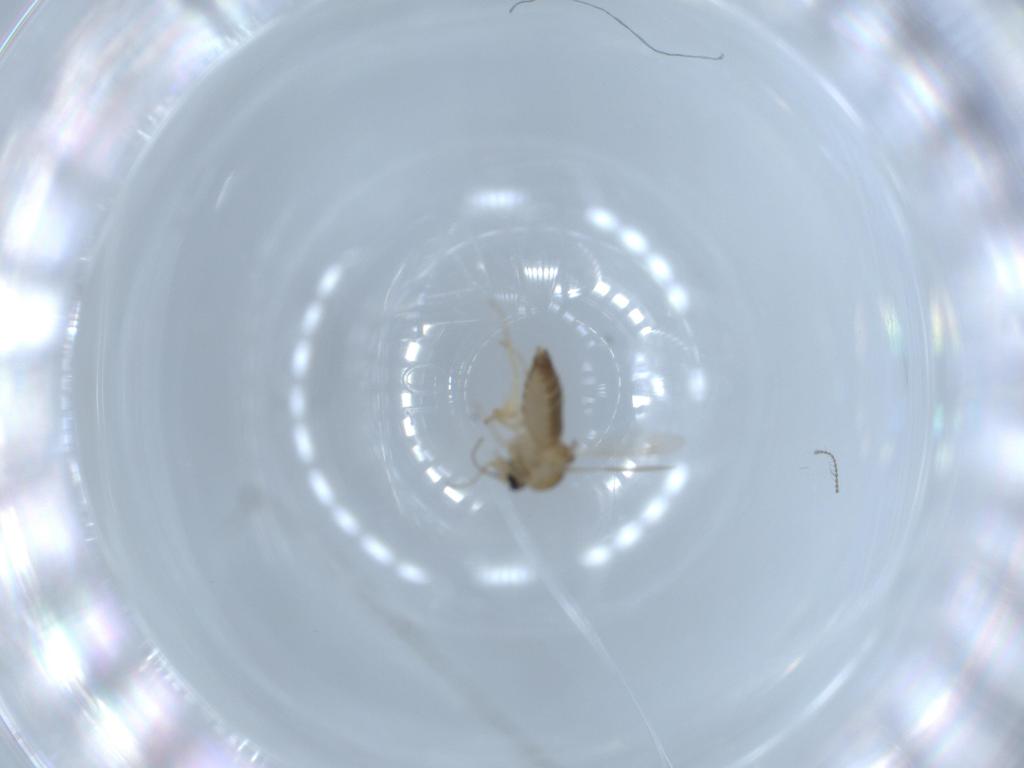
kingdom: Animalia
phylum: Arthropoda
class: Insecta
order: Diptera
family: Ceratopogonidae
